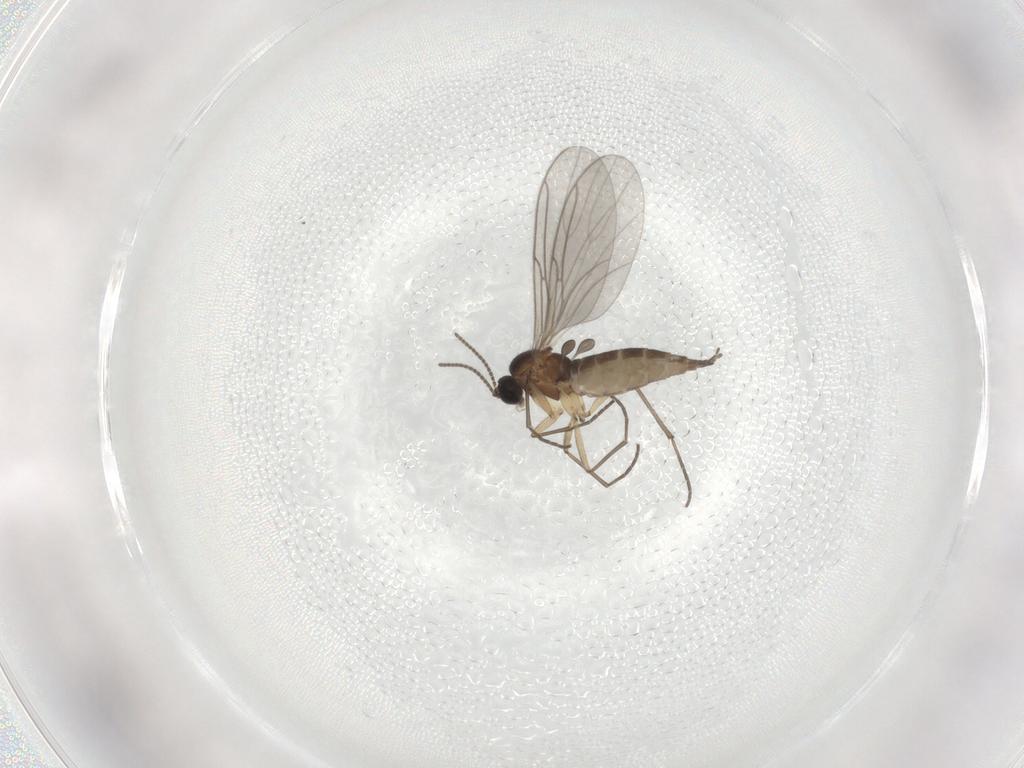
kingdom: Animalia
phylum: Arthropoda
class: Insecta
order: Diptera
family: Sciaridae
